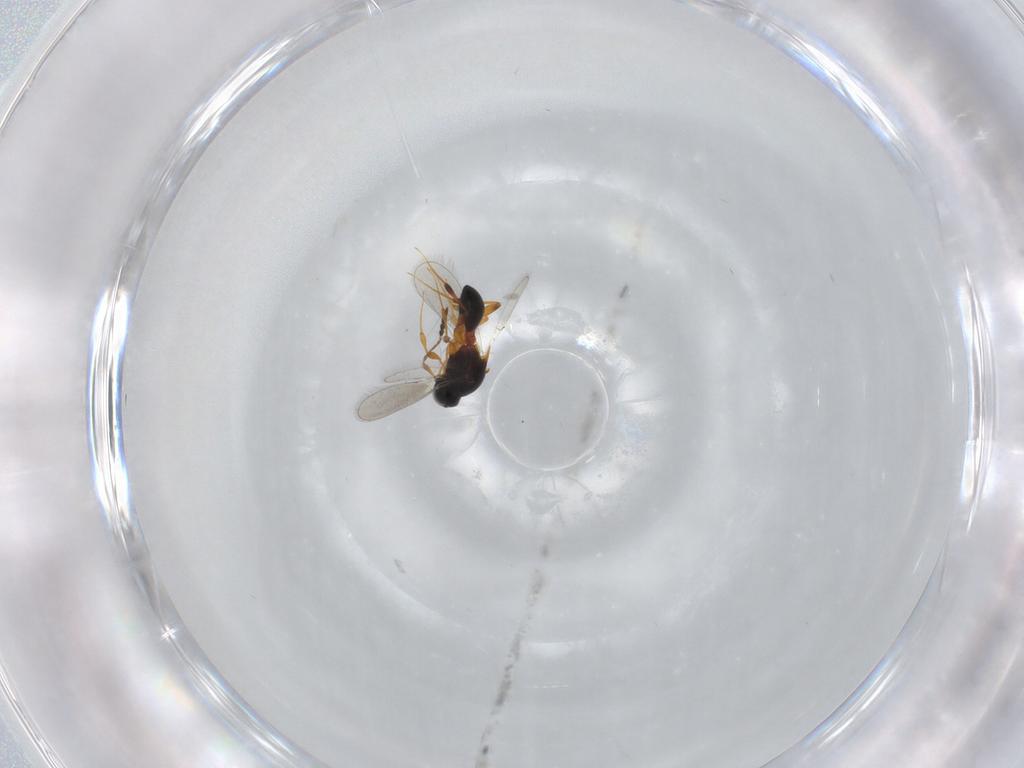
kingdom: Animalia
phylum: Arthropoda
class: Insecta
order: Hymenoptera
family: Platygastridae
